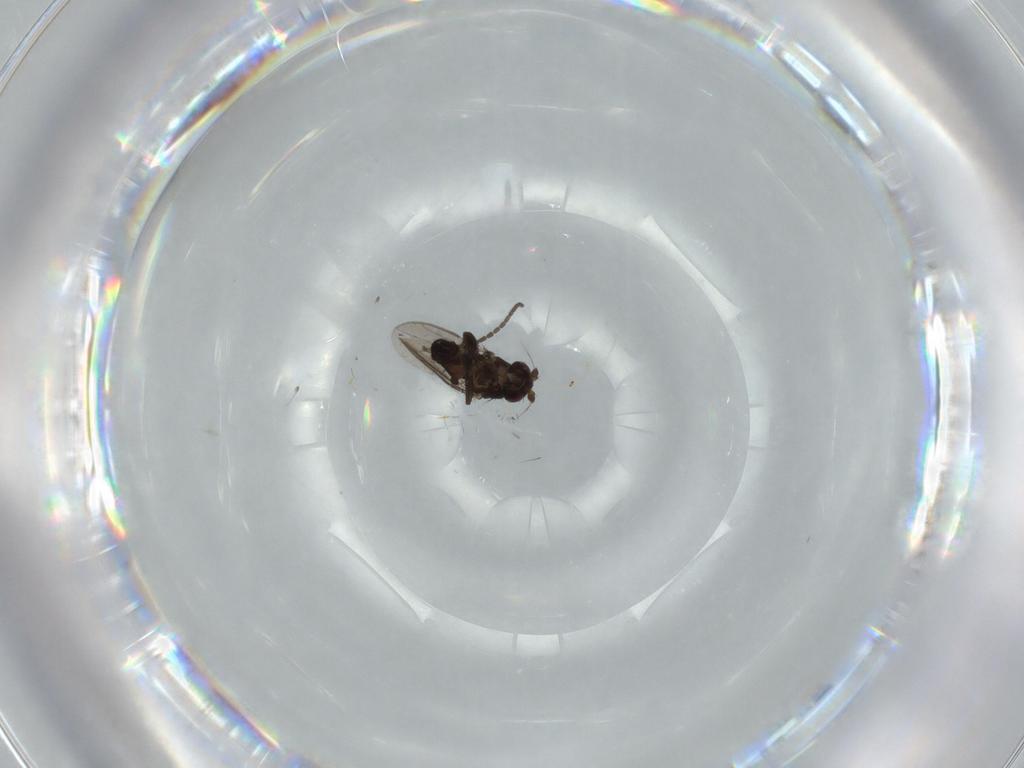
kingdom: Animalia
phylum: Arthropoda
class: Insecta
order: Diptera
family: Sphaeroceridae
